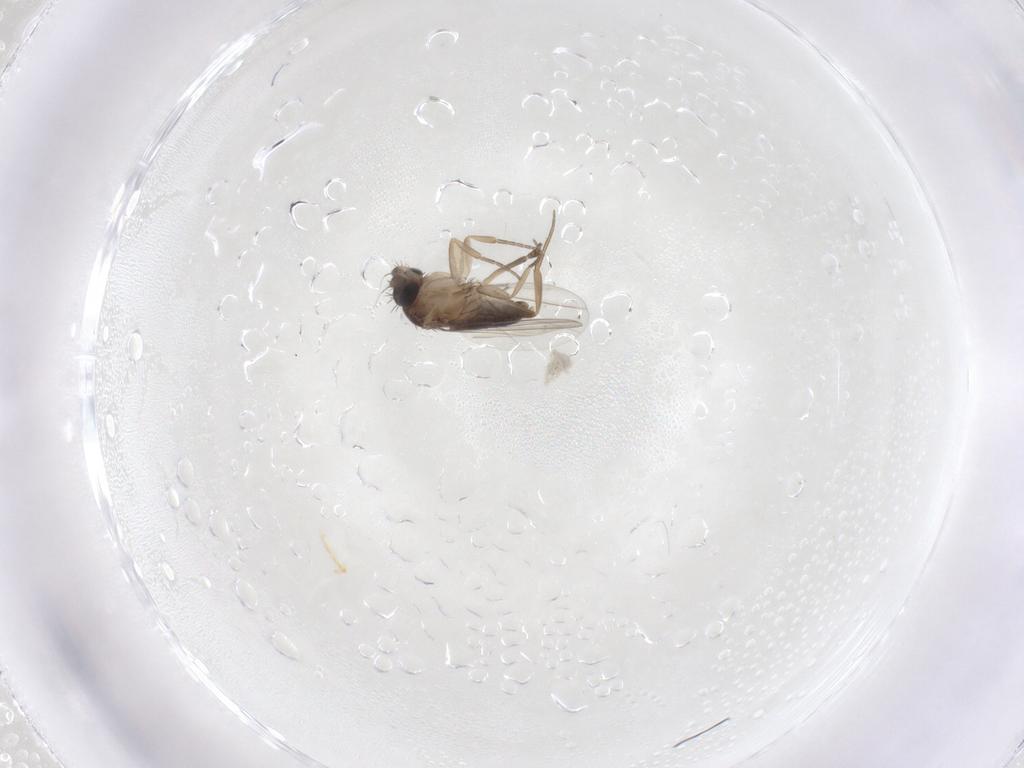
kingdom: Animalia
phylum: Arthropoda
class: Insecta
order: Diptera
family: Phoridae
